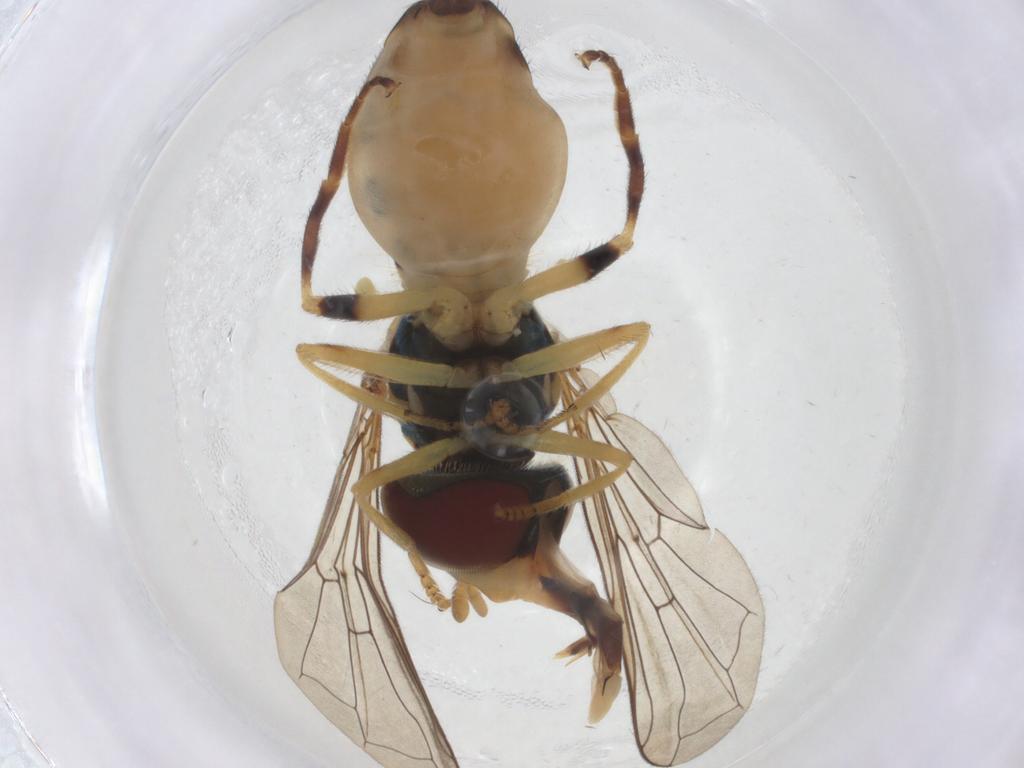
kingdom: Animalia
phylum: Arthropoda
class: Insecta
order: Diptera
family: Syrphidae
